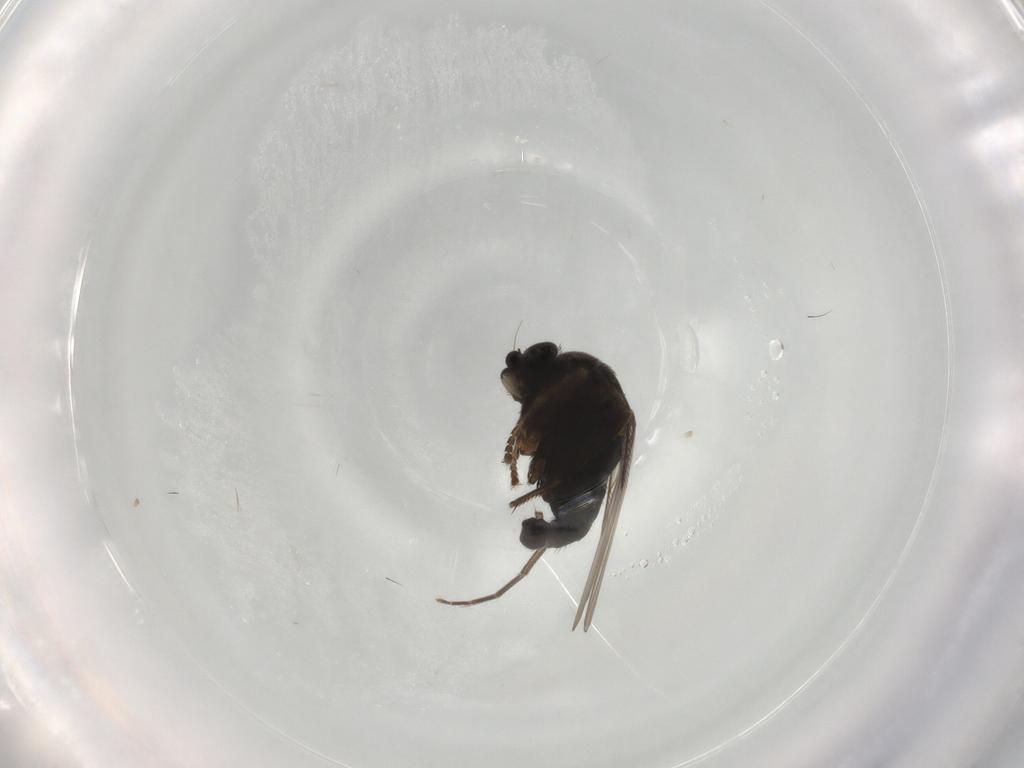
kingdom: Animalia
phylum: Arthropoda
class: Insecta
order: Diptera
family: Phoridae
